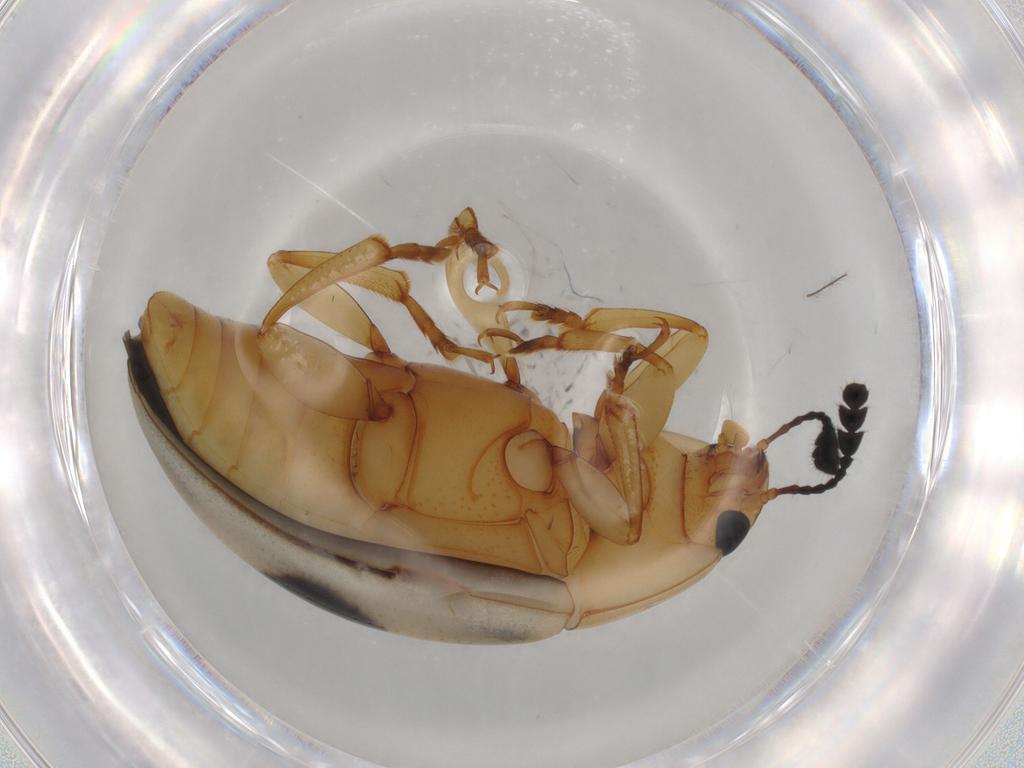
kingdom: Animalia
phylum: Arthropoda
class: Insecta
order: Coleoptera
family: Erotylidae
